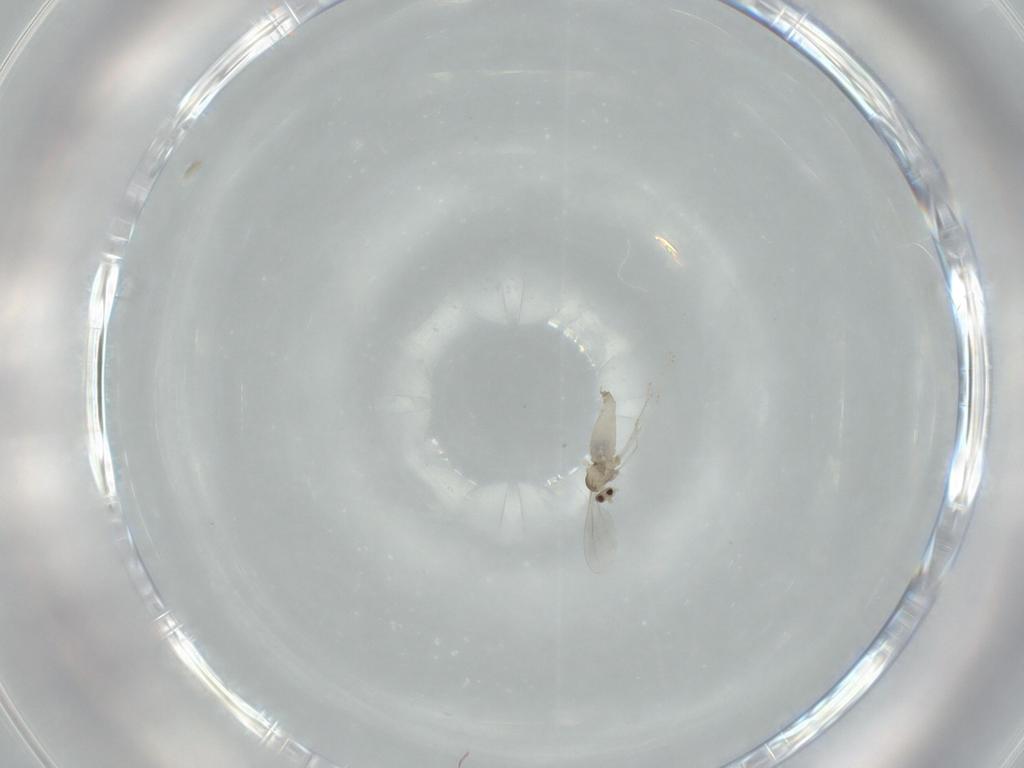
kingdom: Animalia
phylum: Arthropoda
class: Insecta
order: Diptera
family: Cecidomyiidae
